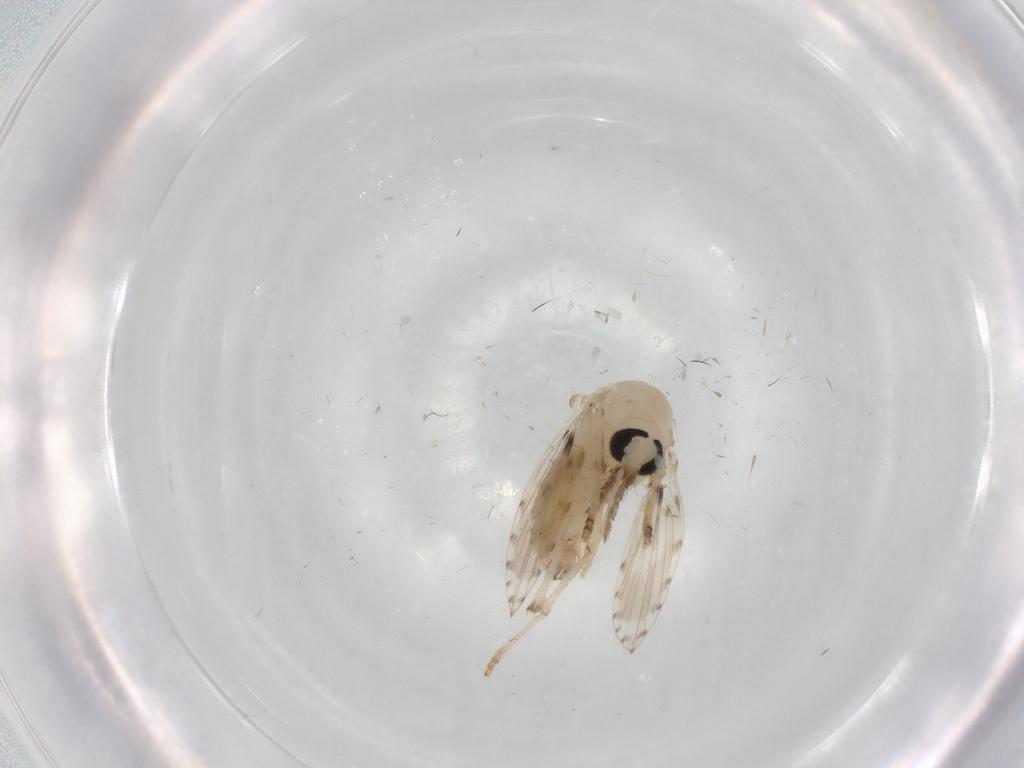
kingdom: Animalia
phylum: Arthropoda
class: Insecta
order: Diptera
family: Psychodidae
